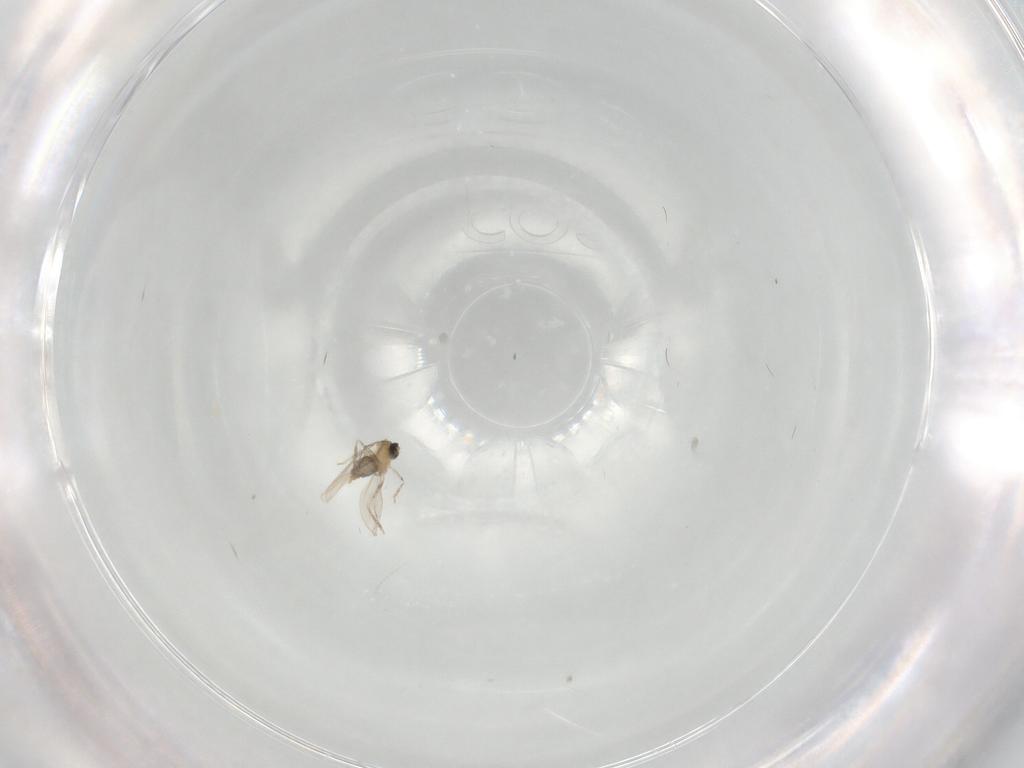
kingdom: Animalia
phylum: Arthropoda
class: Insecta
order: Diptera
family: Cecidomyiidae
